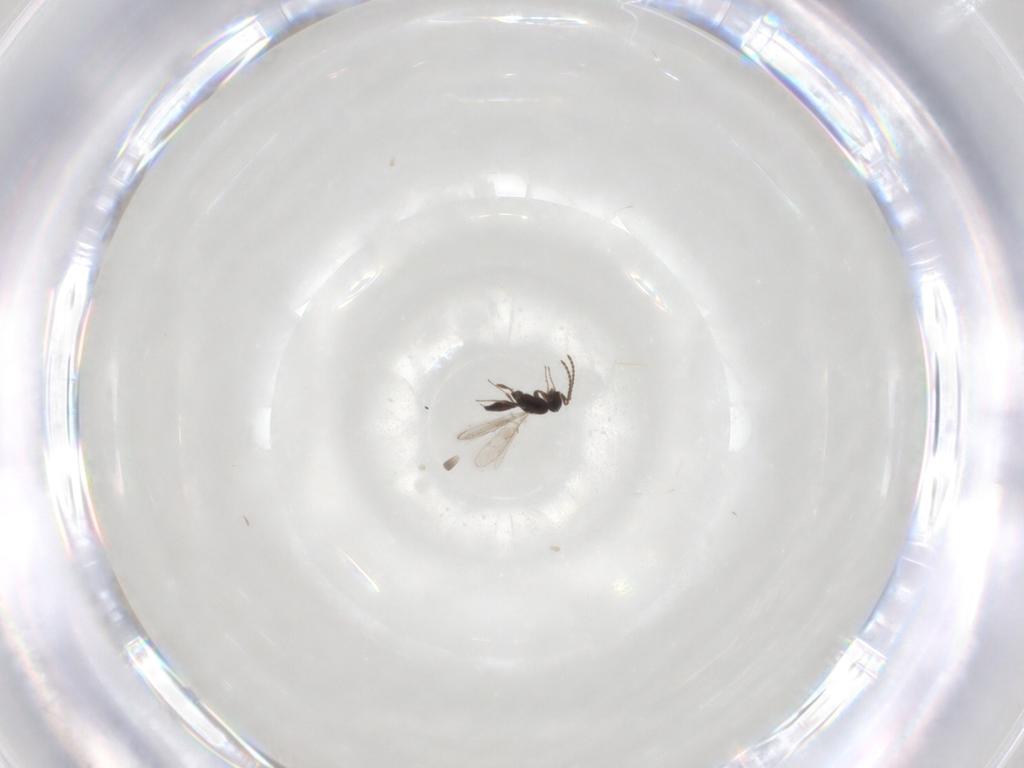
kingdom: Animalia
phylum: Arthropoda
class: Insecta
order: Hymenoptera
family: Scelionidae
